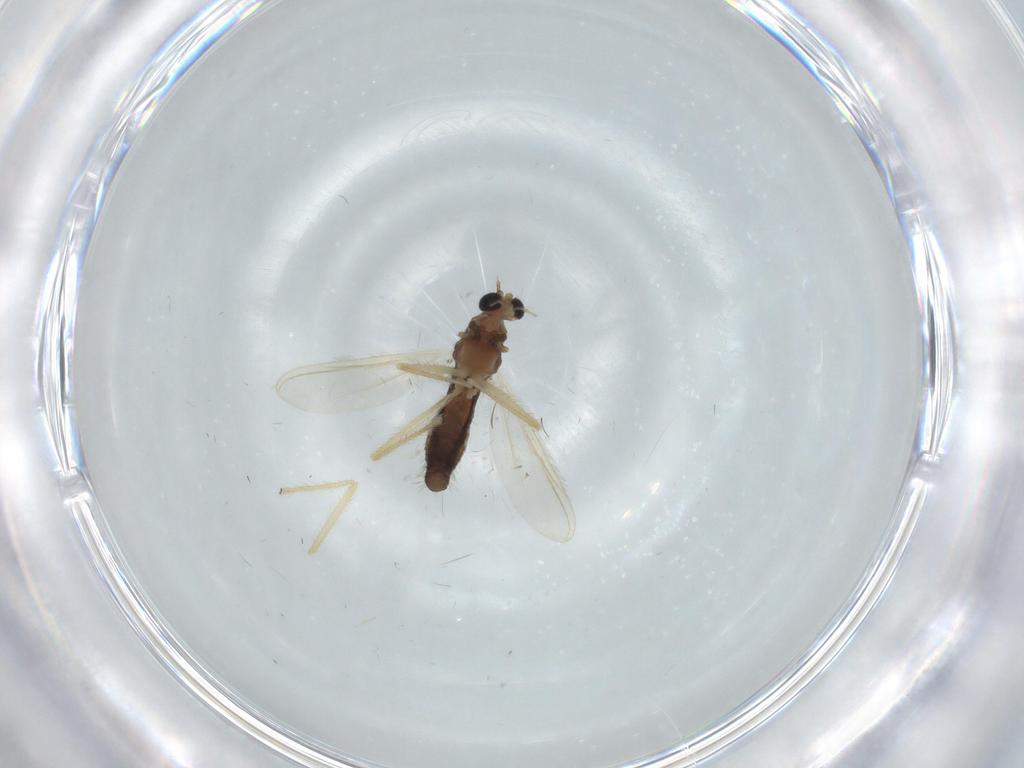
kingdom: Animalia
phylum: Arthropoda
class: Insecta
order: Diptera
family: Chironomidae
